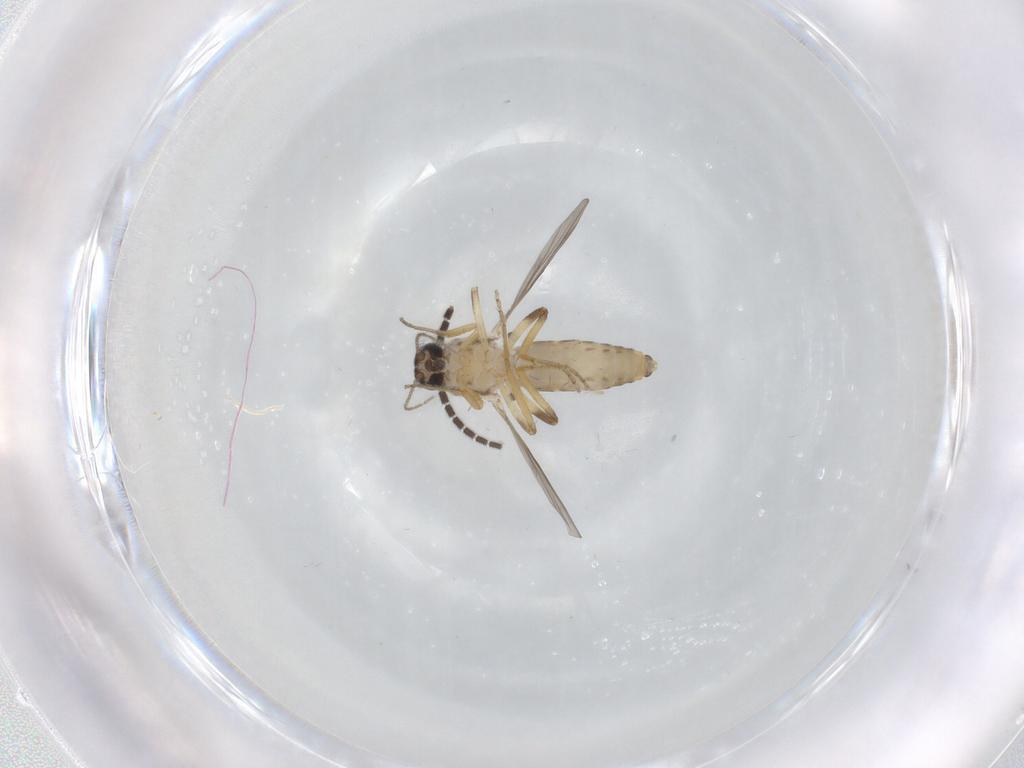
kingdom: Animalia
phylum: Arthropoda
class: Insecta
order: Diptera
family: Sciaridae
